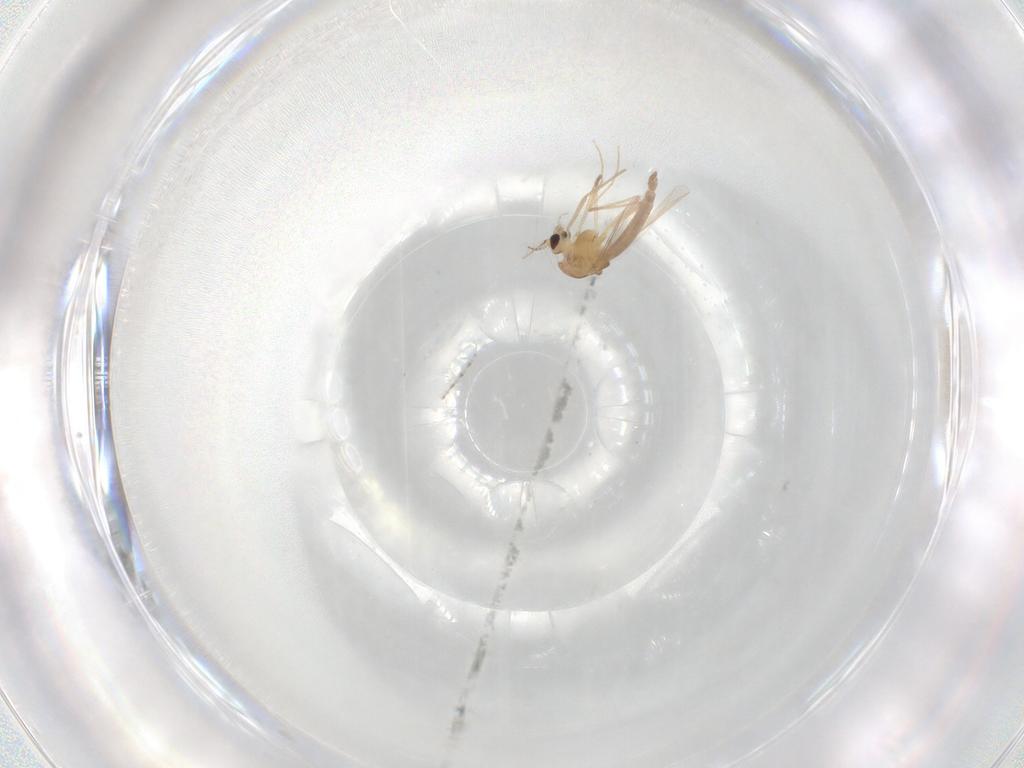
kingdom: Animalia
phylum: Arthropoda
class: Insecta
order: Diptera
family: Chironomidae
